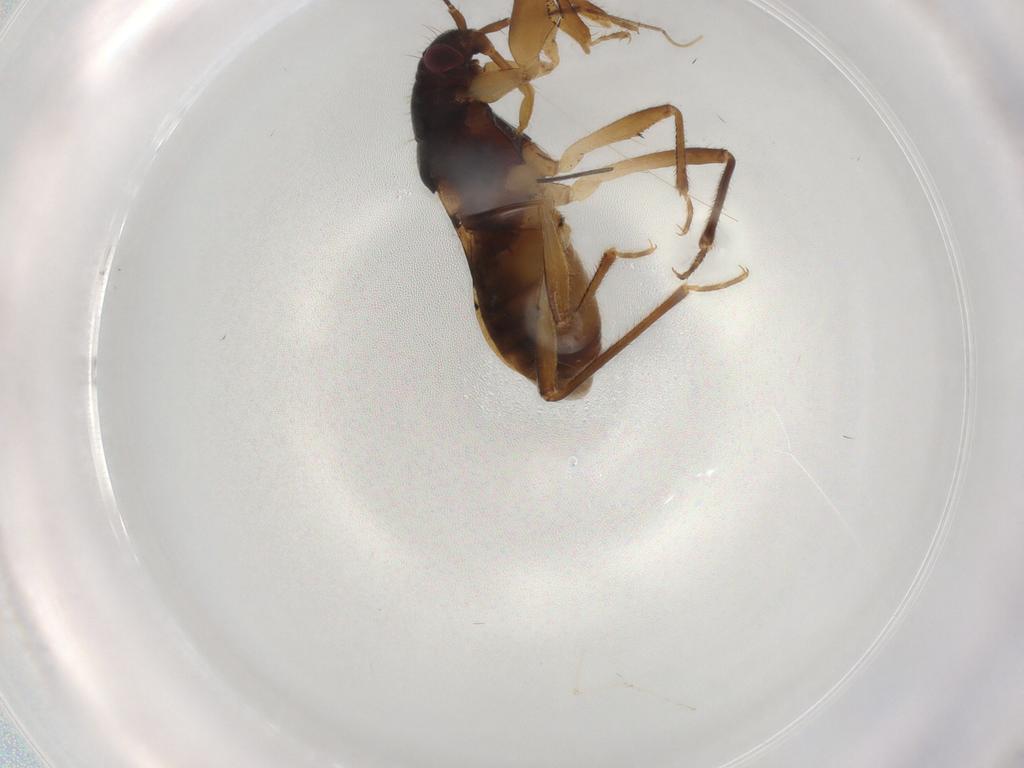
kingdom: Animalia
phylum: Arthropoda
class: Insecta
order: Hemiptera
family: Nabidae
